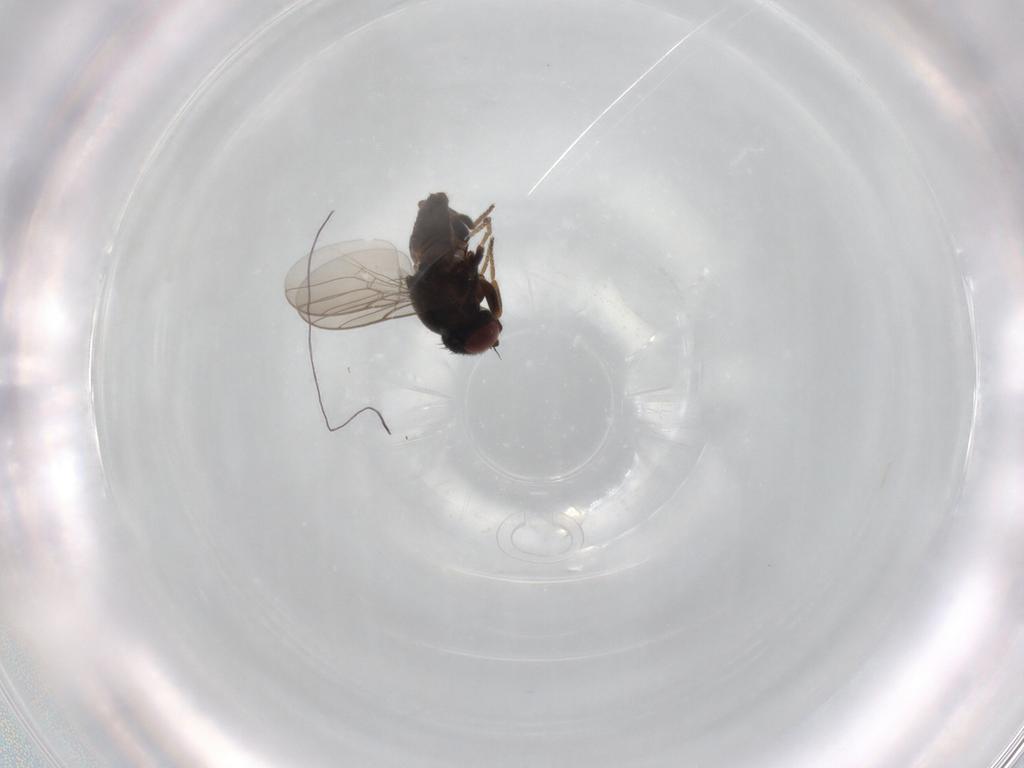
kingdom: Animalia
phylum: Arthropoda
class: Insecta
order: Diptera
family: Chloropidae
